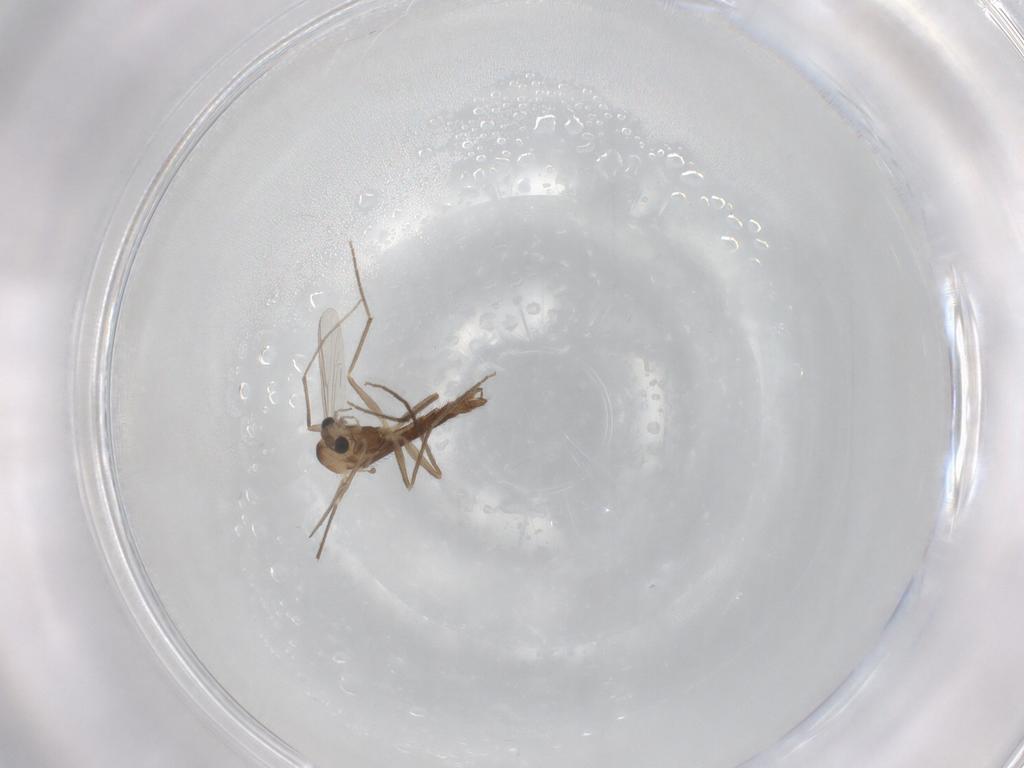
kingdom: Animalia
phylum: Arthropoda
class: Insecta
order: Diptera
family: Chironomidae
